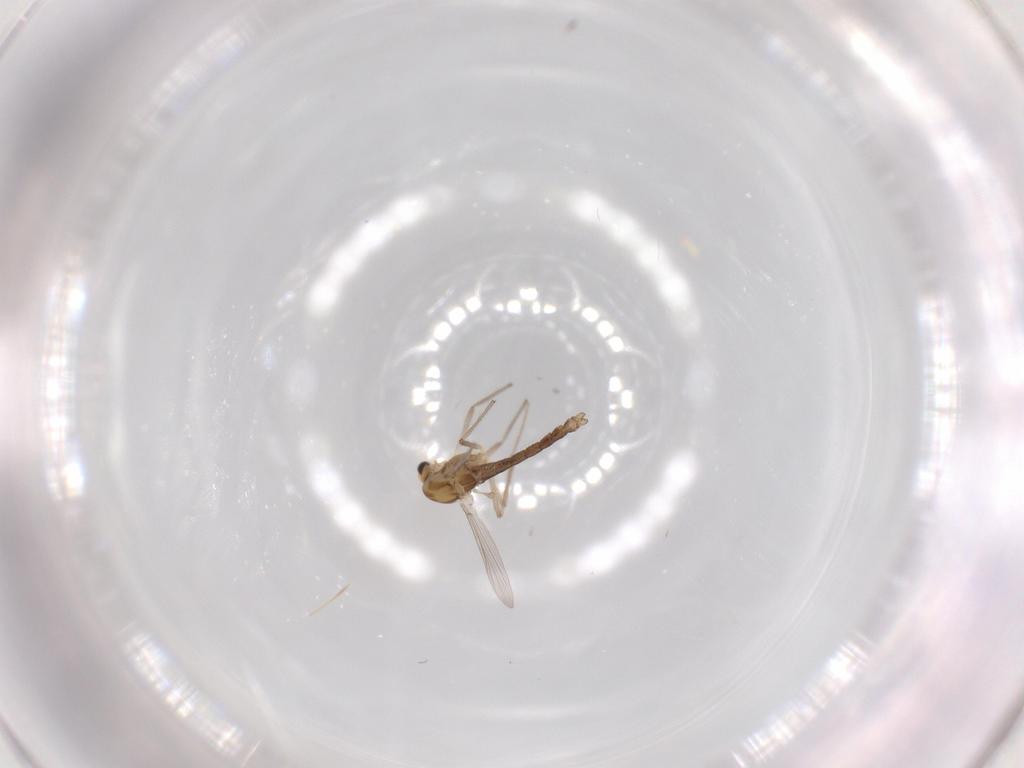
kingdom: Animalia
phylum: Arthropoda
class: Insecta
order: Diptera
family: Chironomidae
